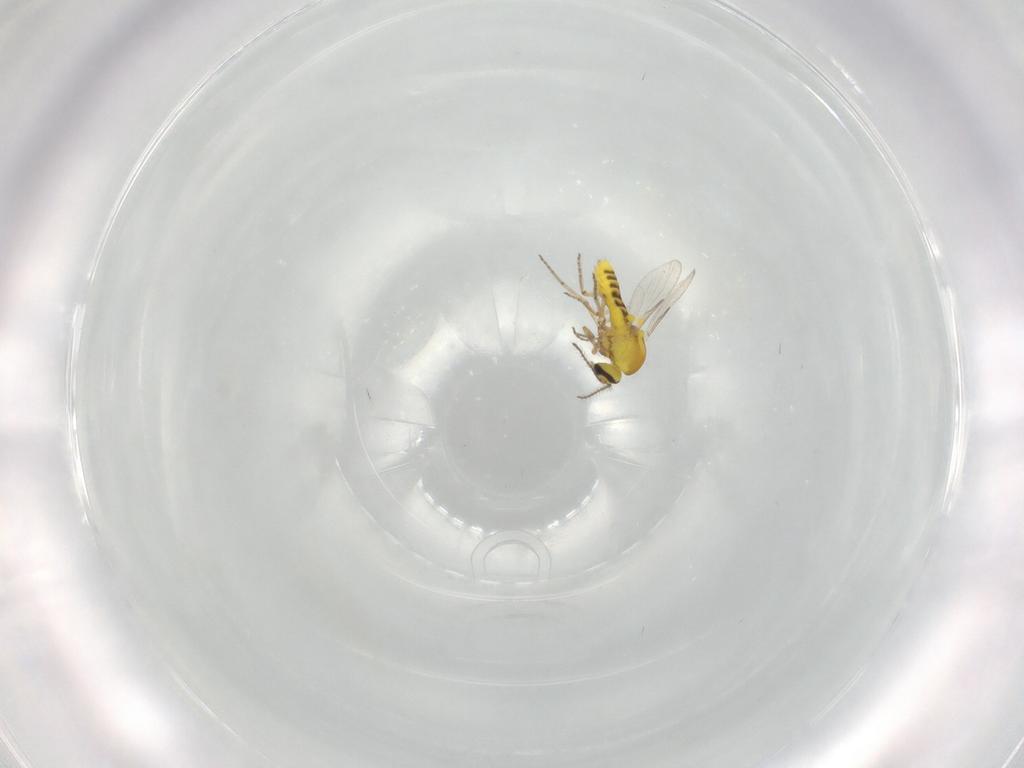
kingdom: Animalia
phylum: Arthropoda
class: Insecta
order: Diptera
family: Ceratopogonidae
